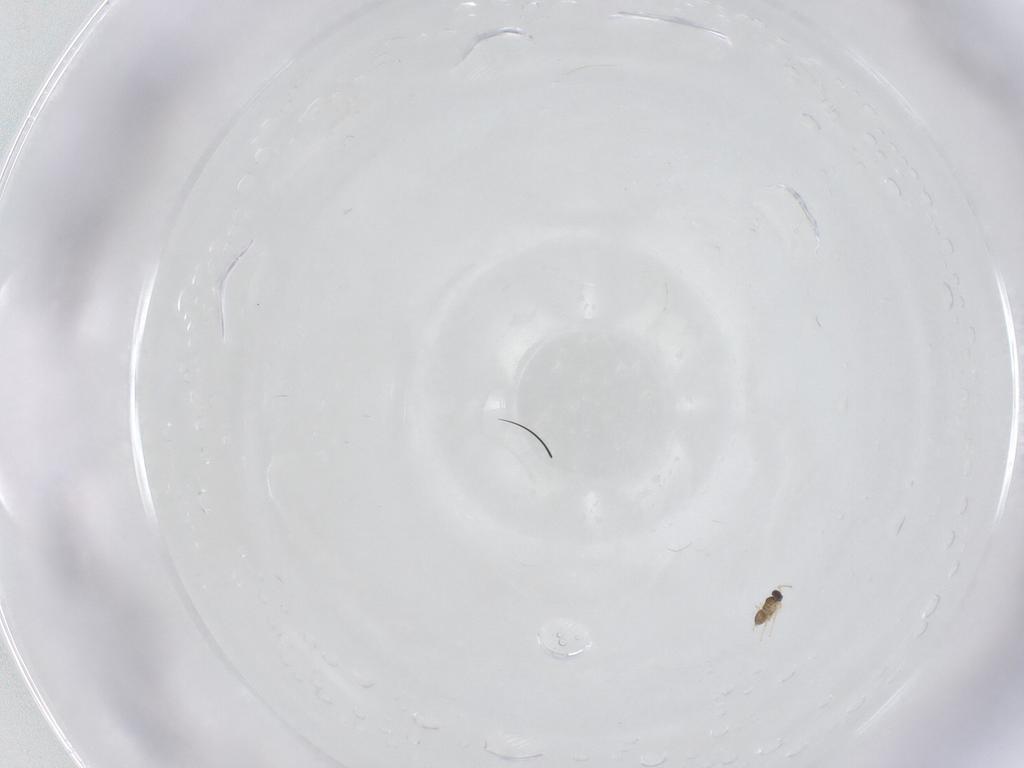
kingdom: Animalia
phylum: Arthropoda
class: Insecta
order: Hymenoptera
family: Mymaridae
